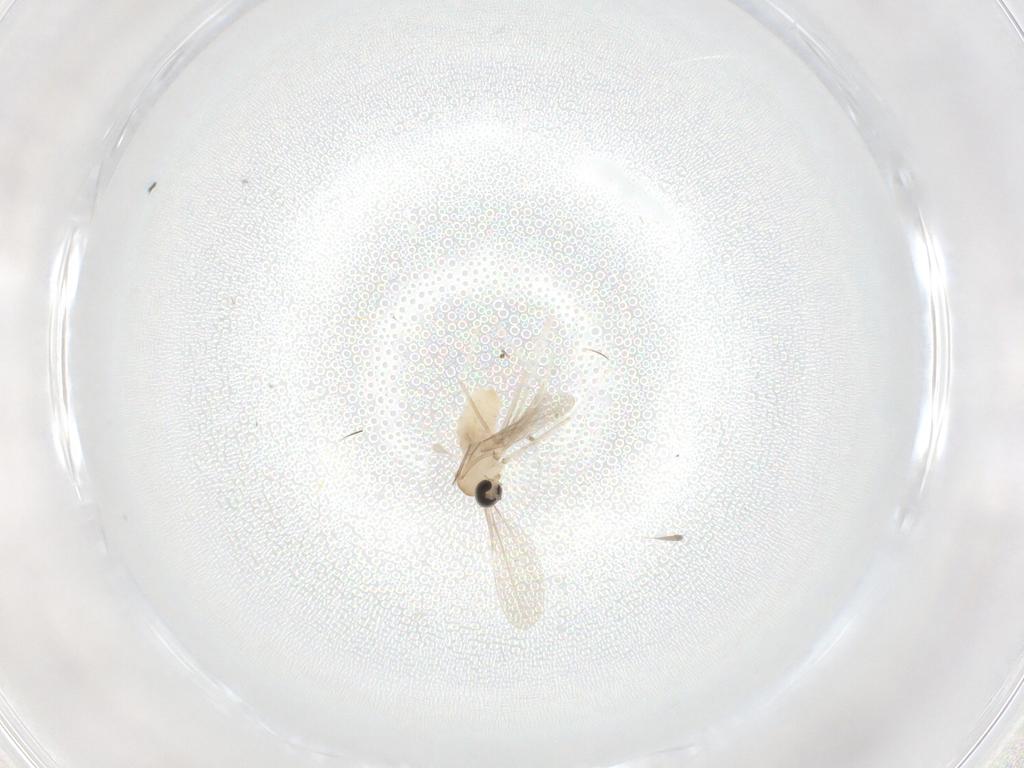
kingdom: Animalia
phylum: Arthropoda
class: Insecta
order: Diptera
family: Cecidomyiidae
